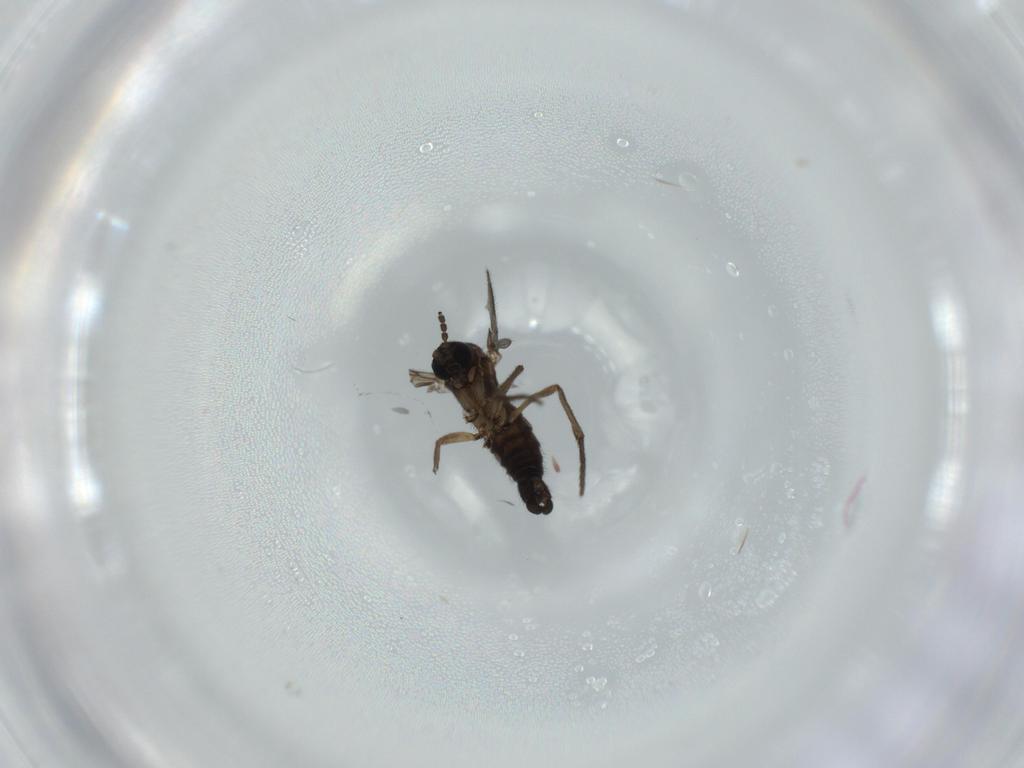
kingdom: Animalia
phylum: Arthropoda
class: Insecta
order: Diptera
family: Sciaridae
